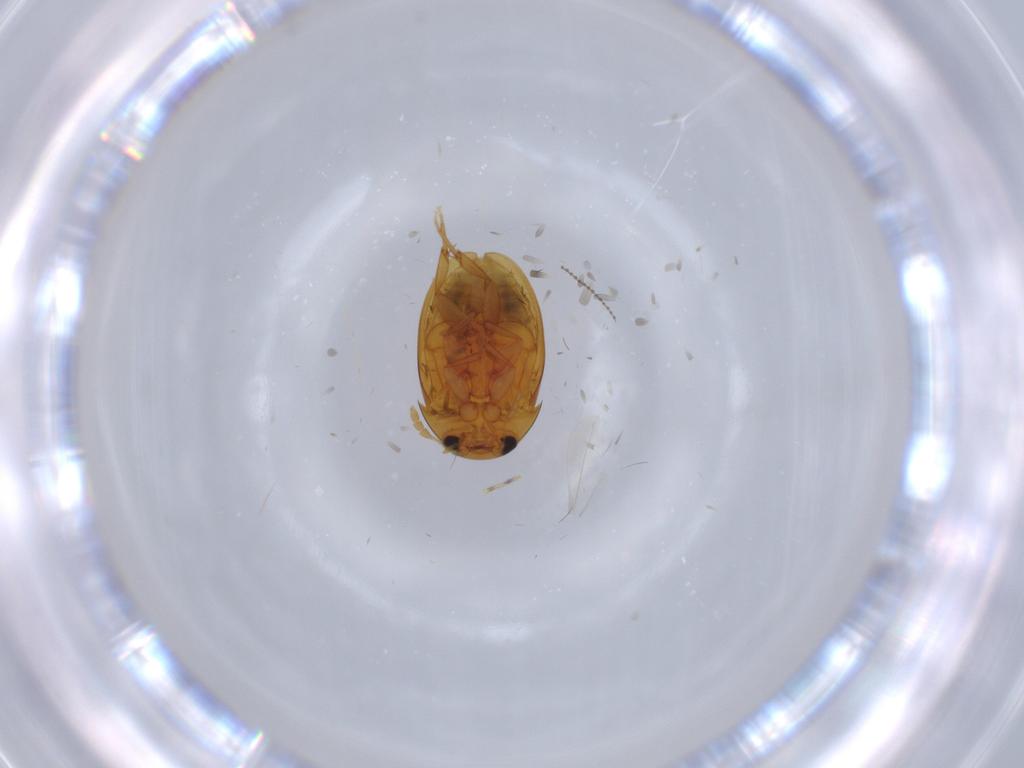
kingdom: Animalia
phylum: Arthropoda
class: Insecta
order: Coleoptera
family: Phalacridae
